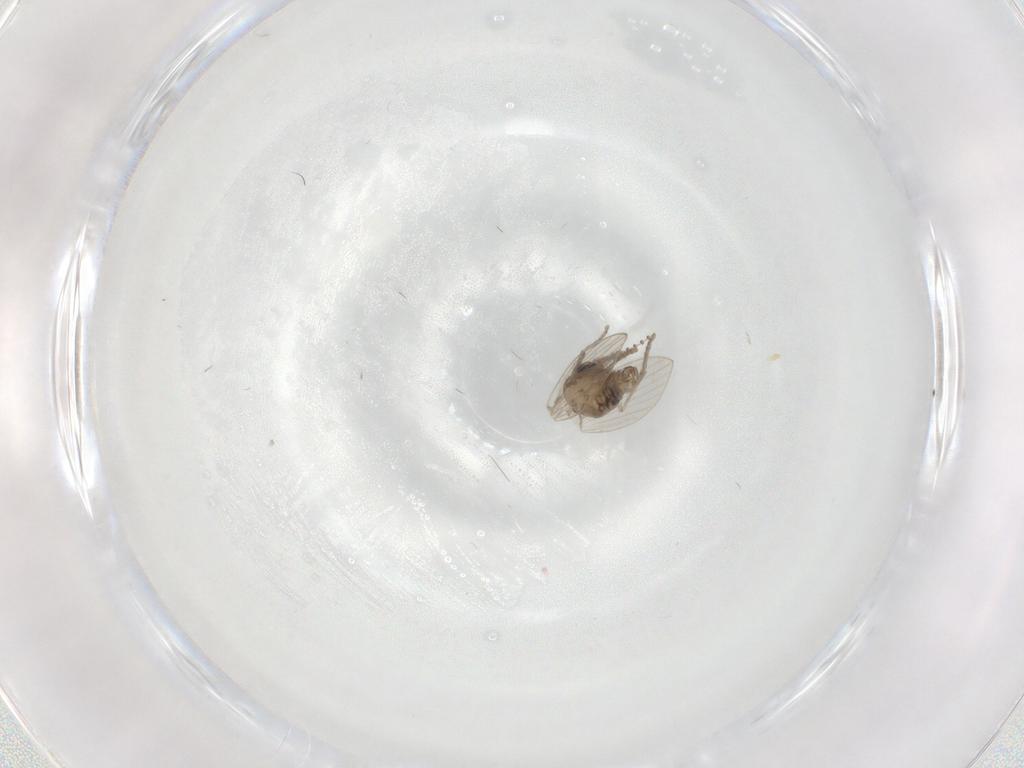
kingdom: Animalia
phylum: Arthropoda
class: Insecta
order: Diptera
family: Psychodidae
